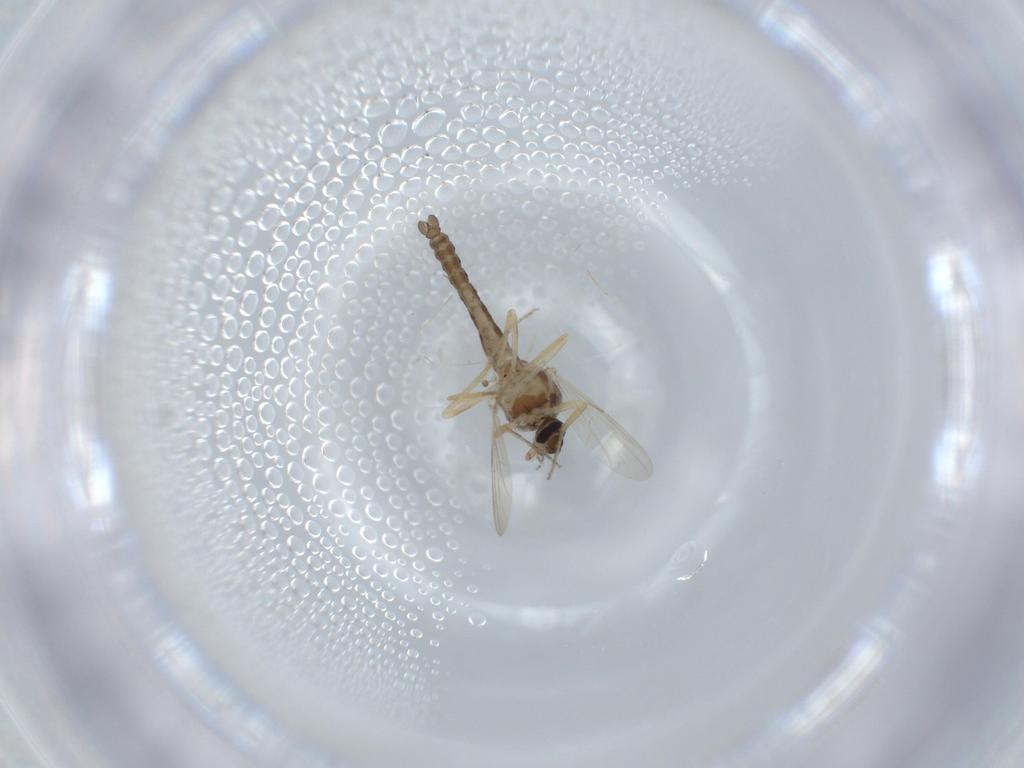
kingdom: Animalia
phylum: Arthropoda
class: Insecta
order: Diptera
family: Ceratopogonidae
